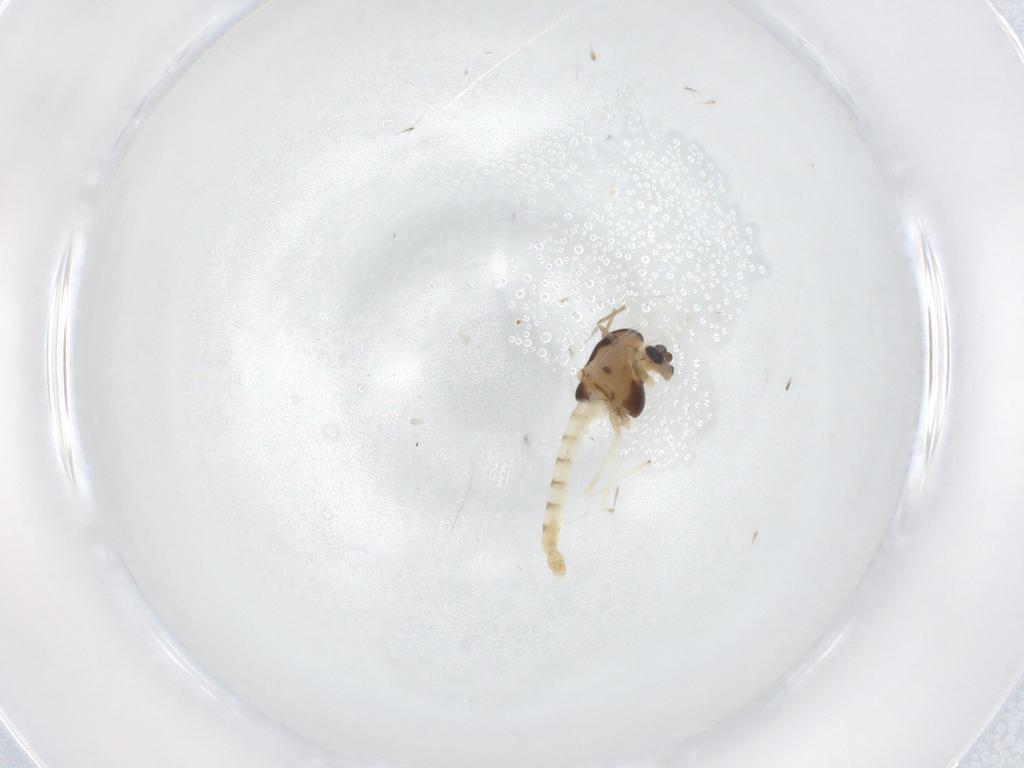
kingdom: Animalia
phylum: Arthropoda
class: Insecta
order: Diptera
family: Chironomidae
